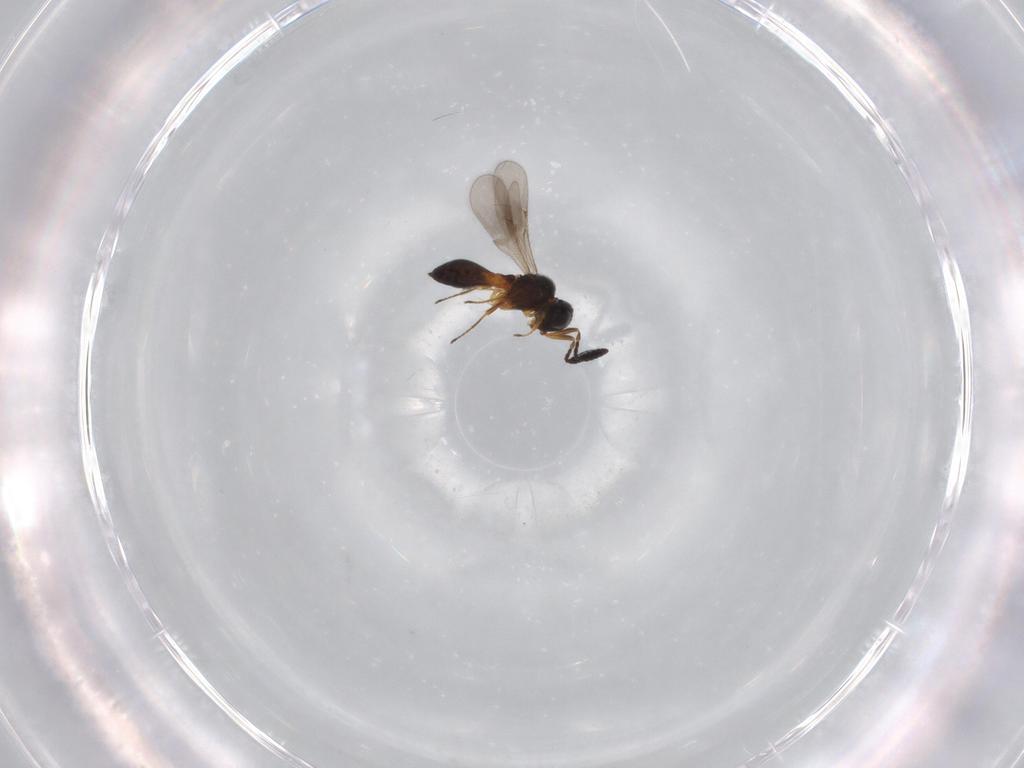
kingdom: Animalia
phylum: Arthropoda
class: Insecta
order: Hymenoptera
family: Scelionidae
